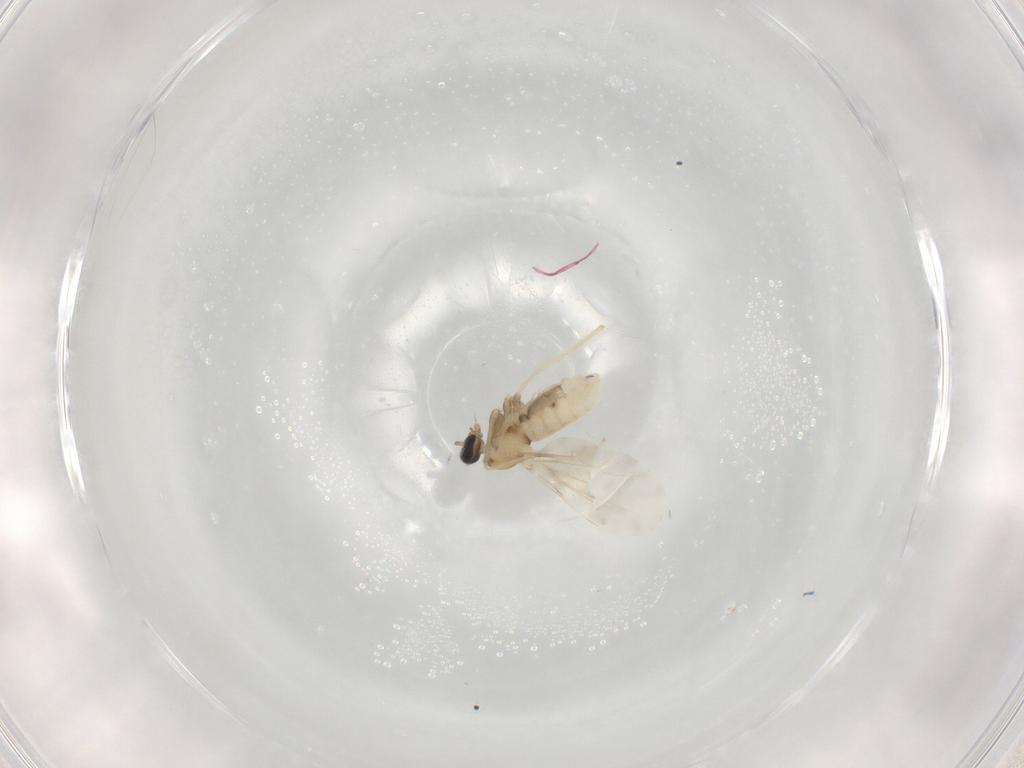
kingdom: Animalia
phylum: Arthropoda
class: Insecta
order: Diptera
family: Cecidomyiidae
